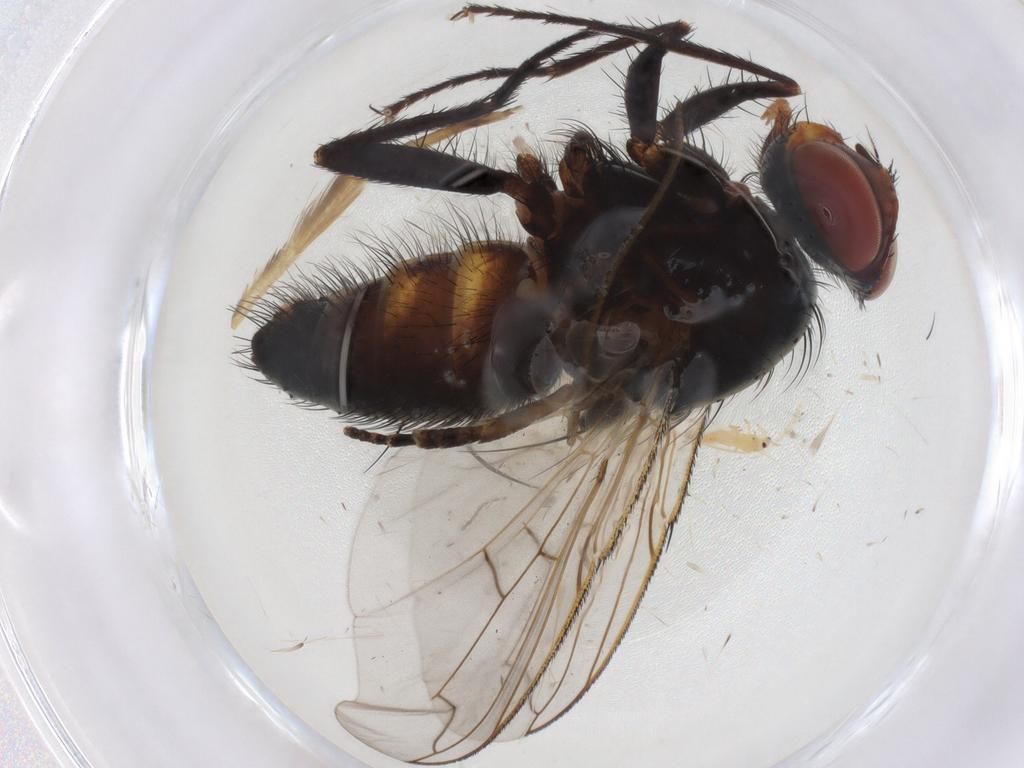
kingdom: Animalia
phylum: Arthropoda
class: Insecta
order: Diptera
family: Tachinidae
